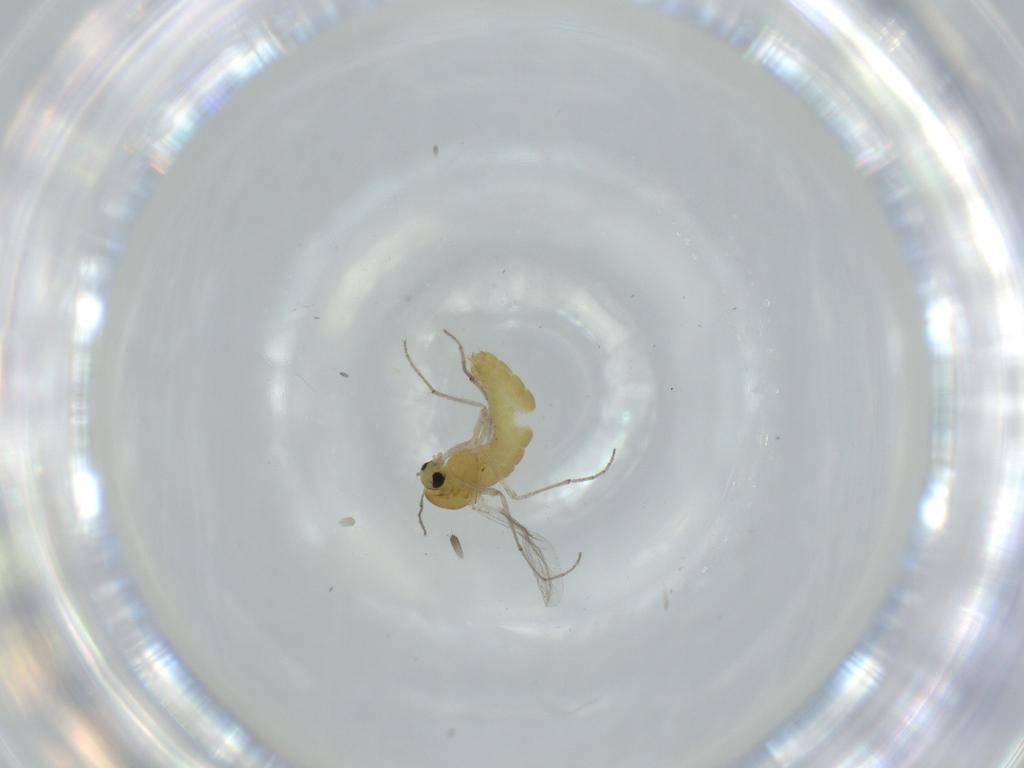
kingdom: Animalia
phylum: Arthropoda
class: Insecta
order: Diptera
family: Chironomidae
